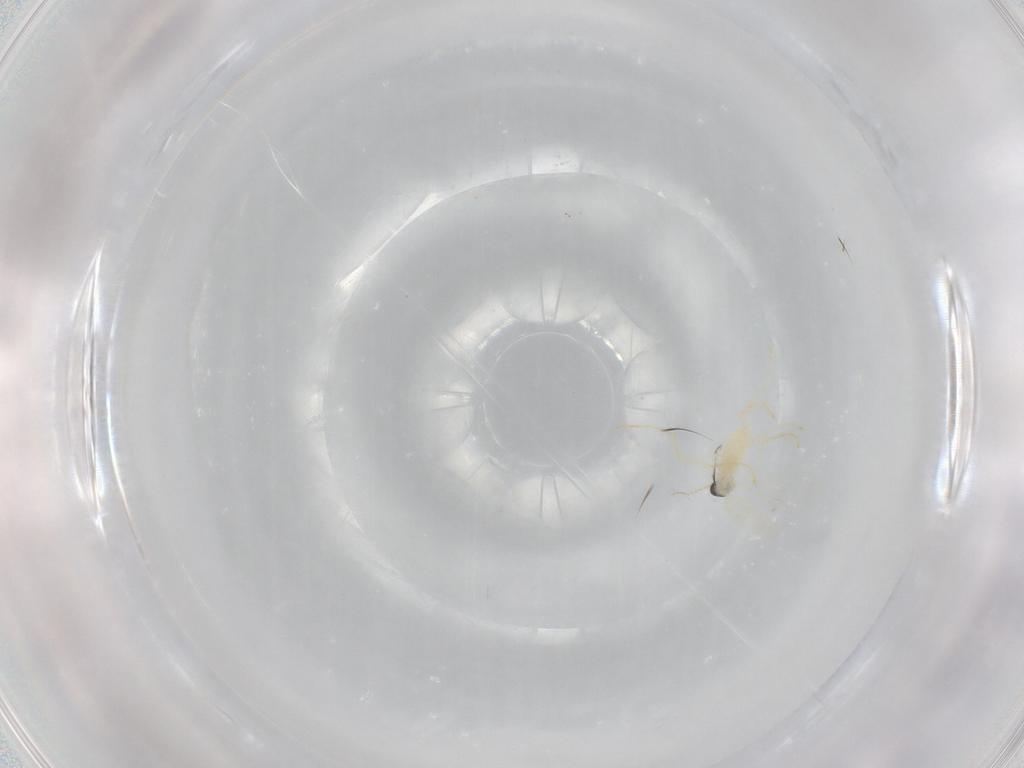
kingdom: Animalia
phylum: Arthropoda
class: Insecta
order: Diptera
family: Cecidomyiidae
